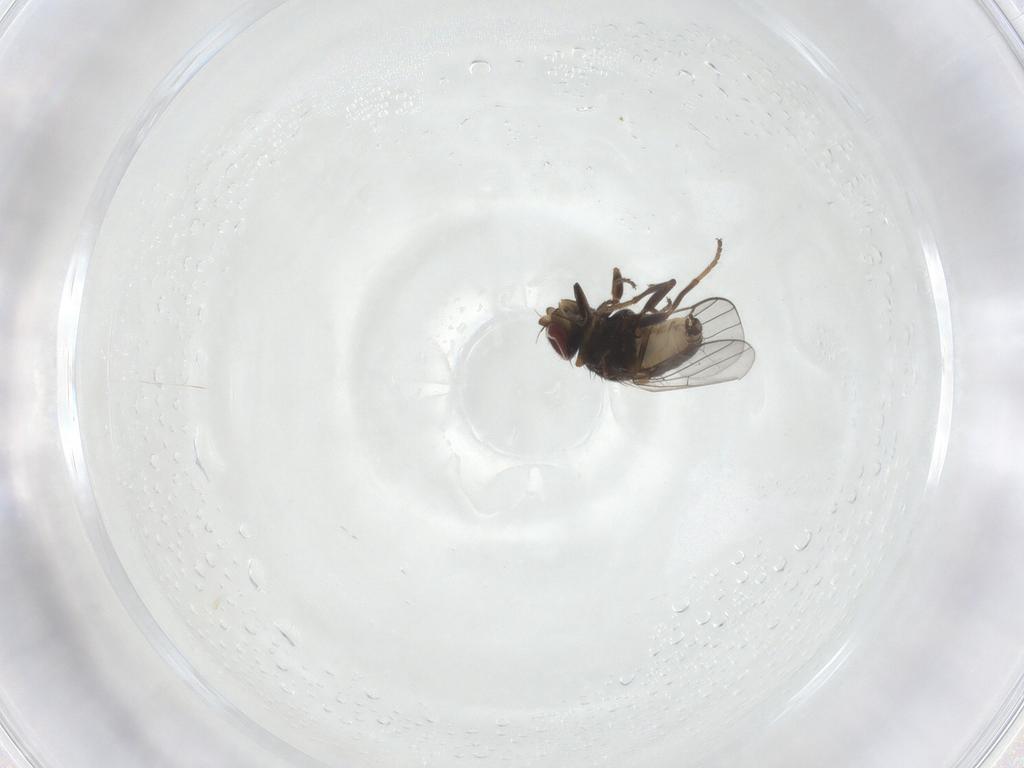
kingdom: Animalia
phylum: Arthropoda
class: Insecta
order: Diptera
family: Chloropidae
